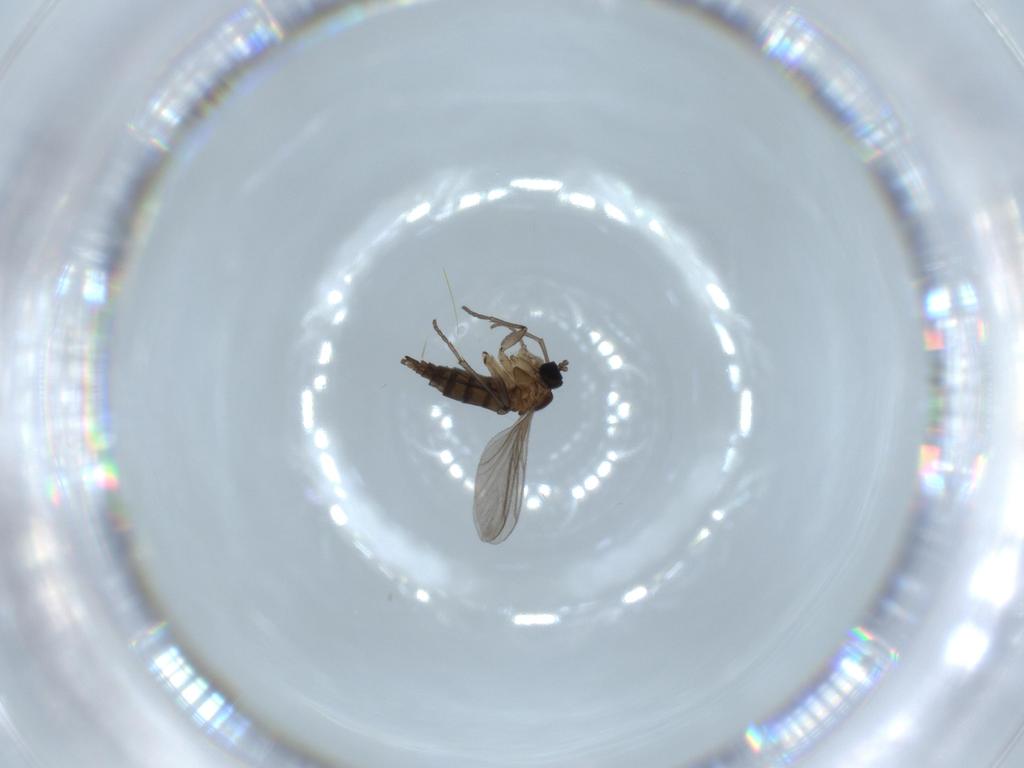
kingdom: Animalia
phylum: Arthropoda
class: Insecta
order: Diptera
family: Sciaridae
